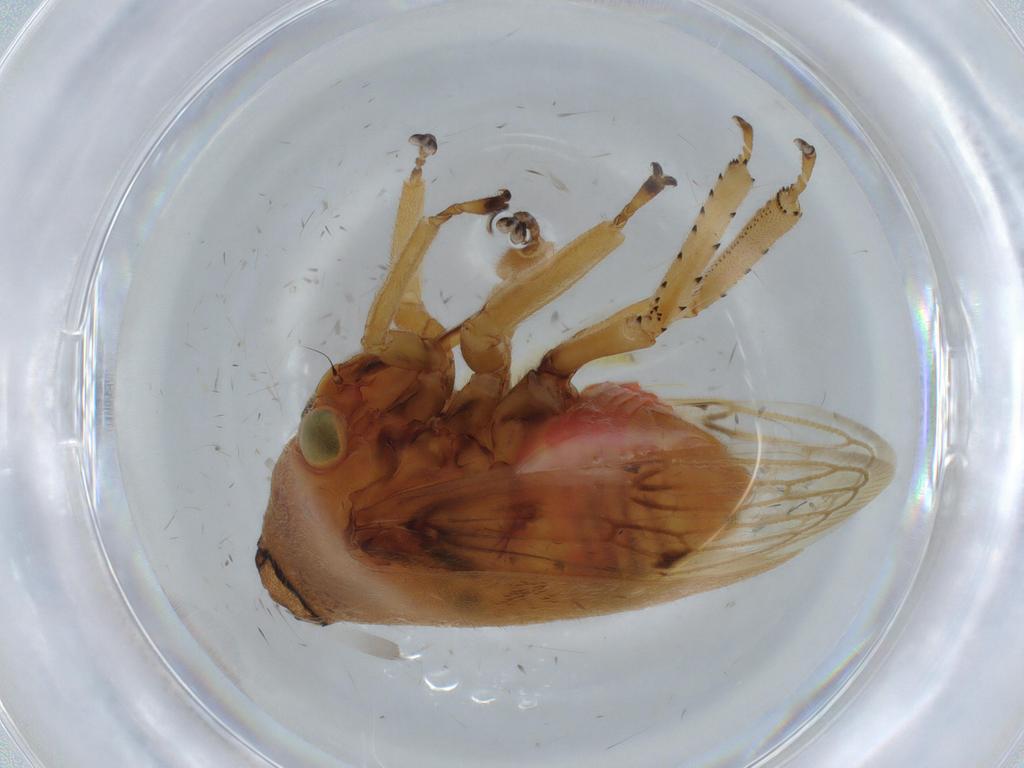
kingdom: Animalia
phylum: Arthropoda
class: Insecta
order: Hemiptera
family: Cicadellidae
